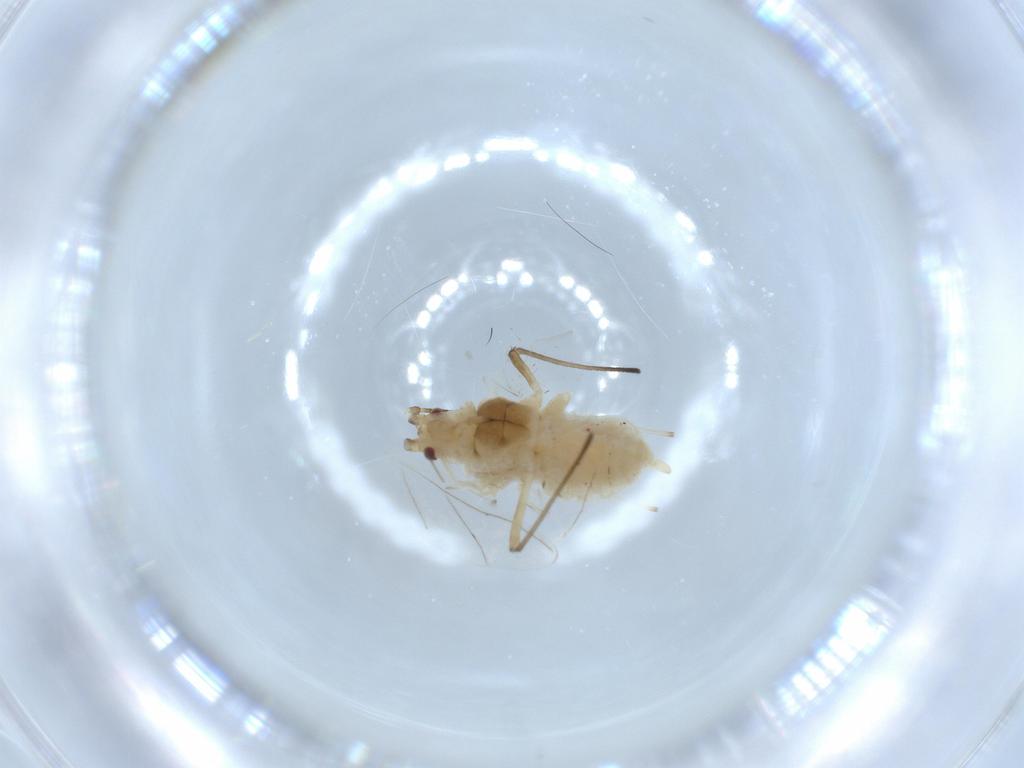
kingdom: Animalia
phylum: Arthropoda
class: Insecta
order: Hemiptera
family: Aphididae
